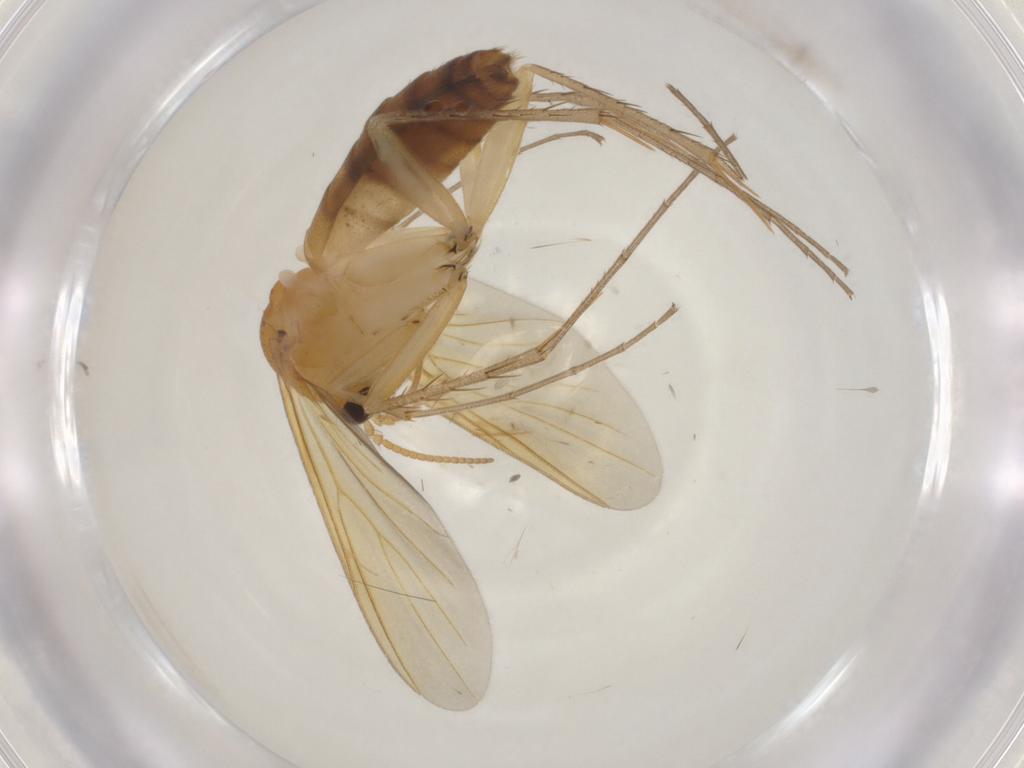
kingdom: Animalia
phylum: Arthropoda
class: Insecta
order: Diptera
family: Mycetophilidae
